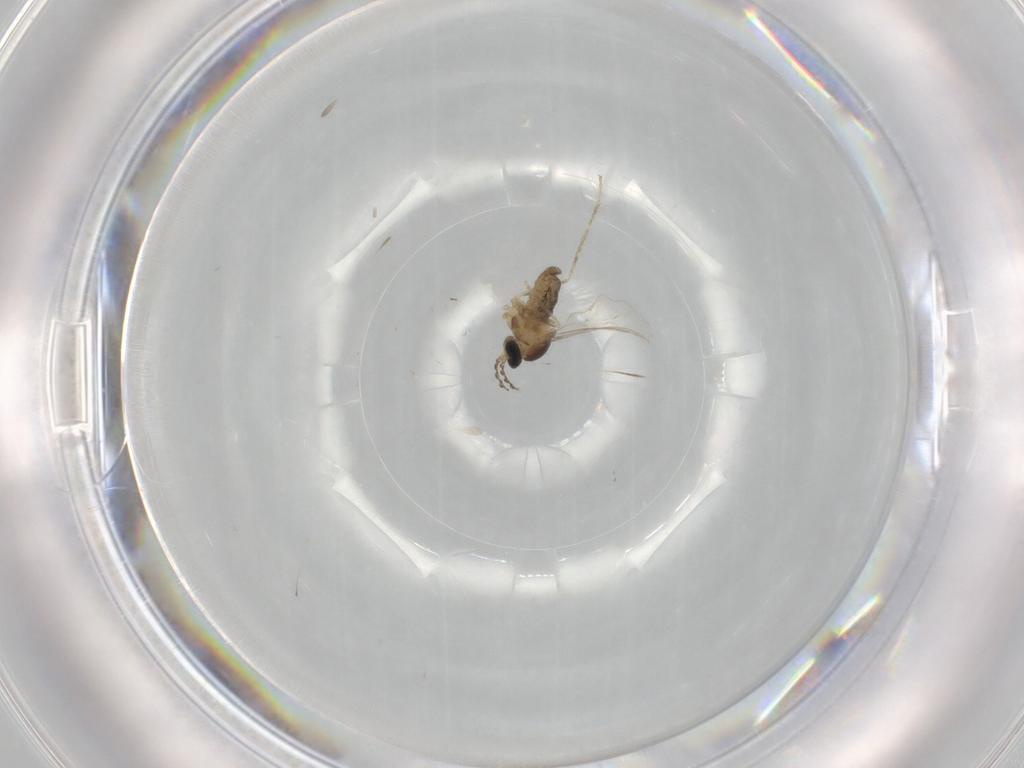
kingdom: Animalia
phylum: Arthropoda
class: Insecta
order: Diptera
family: Cecidomyiidae
